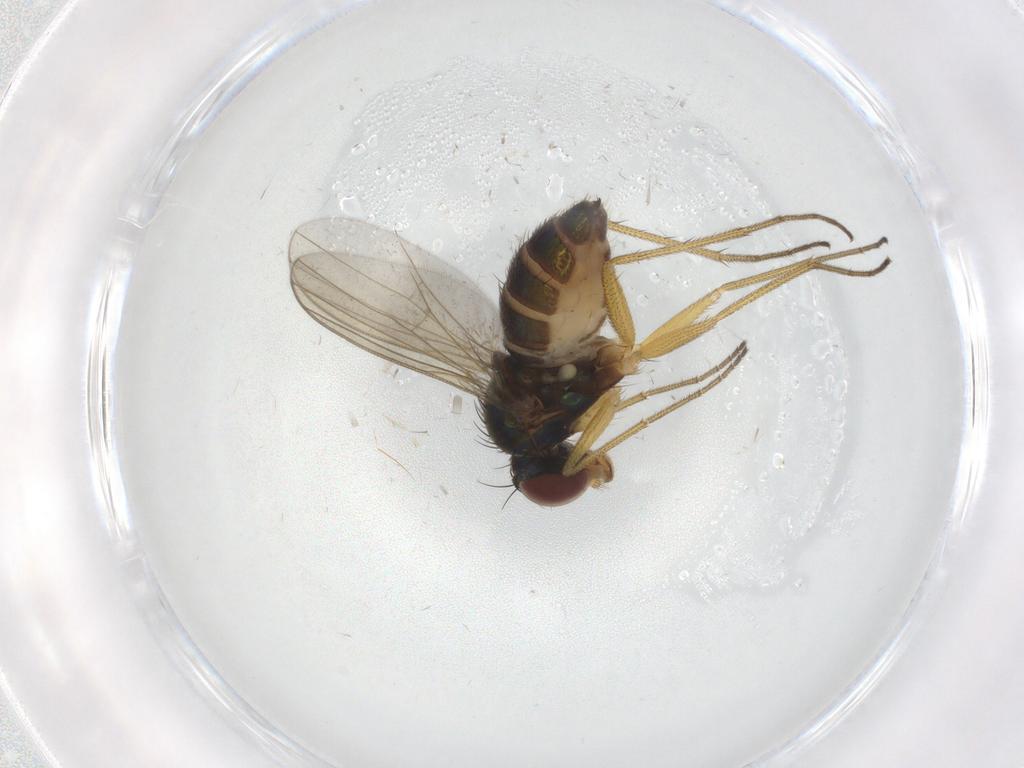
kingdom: Animalia
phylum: Arthropoda
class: Insecta
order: Diptera
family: Dolichopodidae
